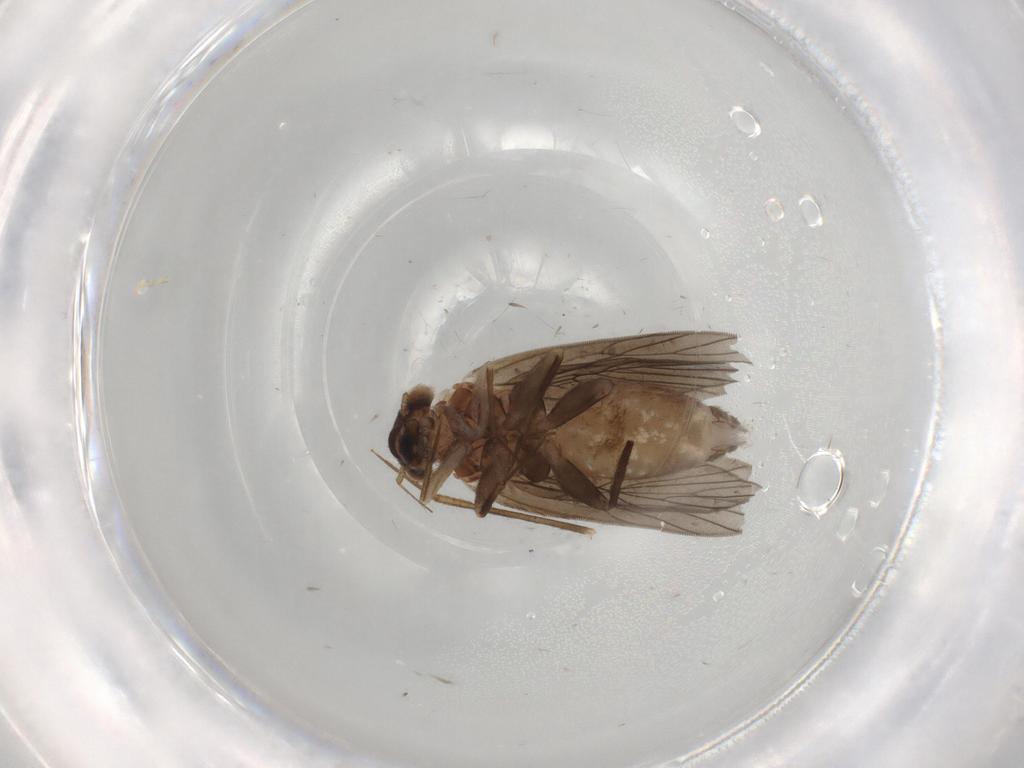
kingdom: Animalia
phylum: Arthropoda
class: Insecta
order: Psocodea
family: Lepidopsocidae
